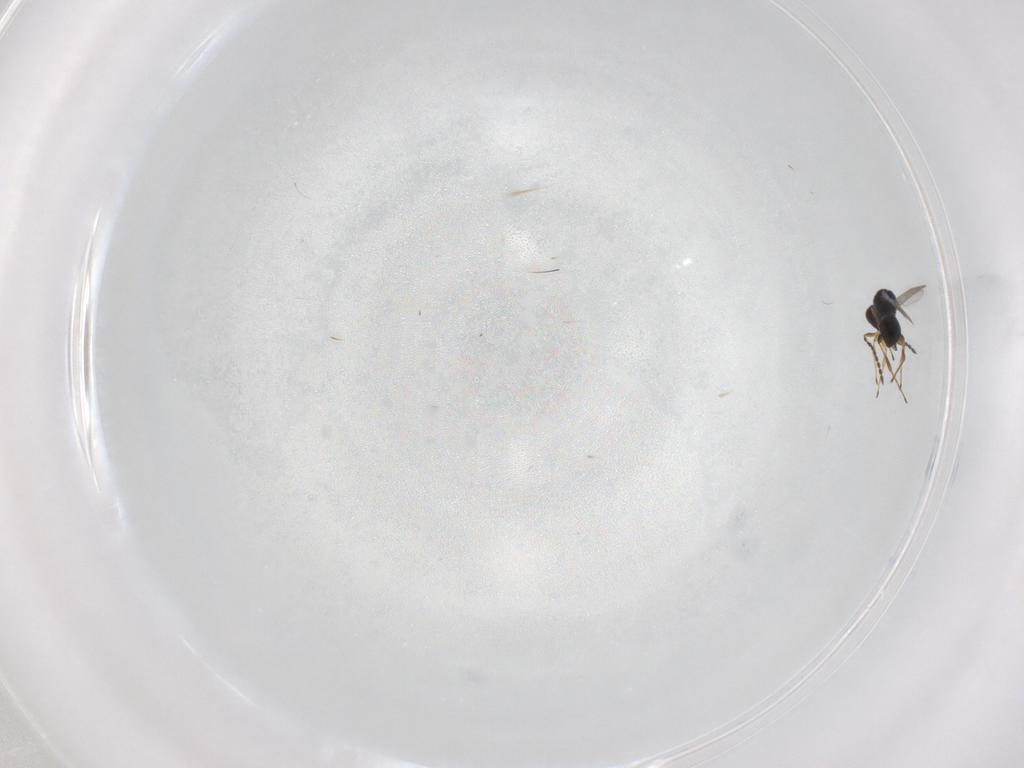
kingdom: Animalia
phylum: Arthropoda
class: Insecta
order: Hymenoptera
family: Platygastridae
